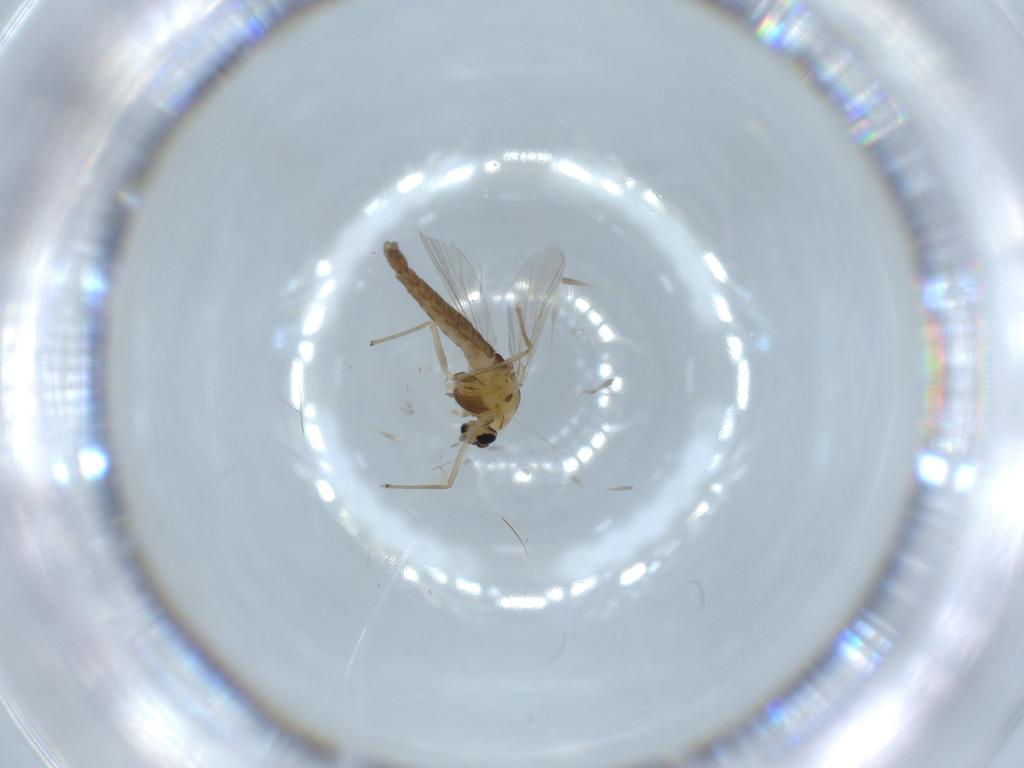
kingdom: Animalia
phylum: Arthropoda
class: Insecta
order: Diptera
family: Chironomidae
